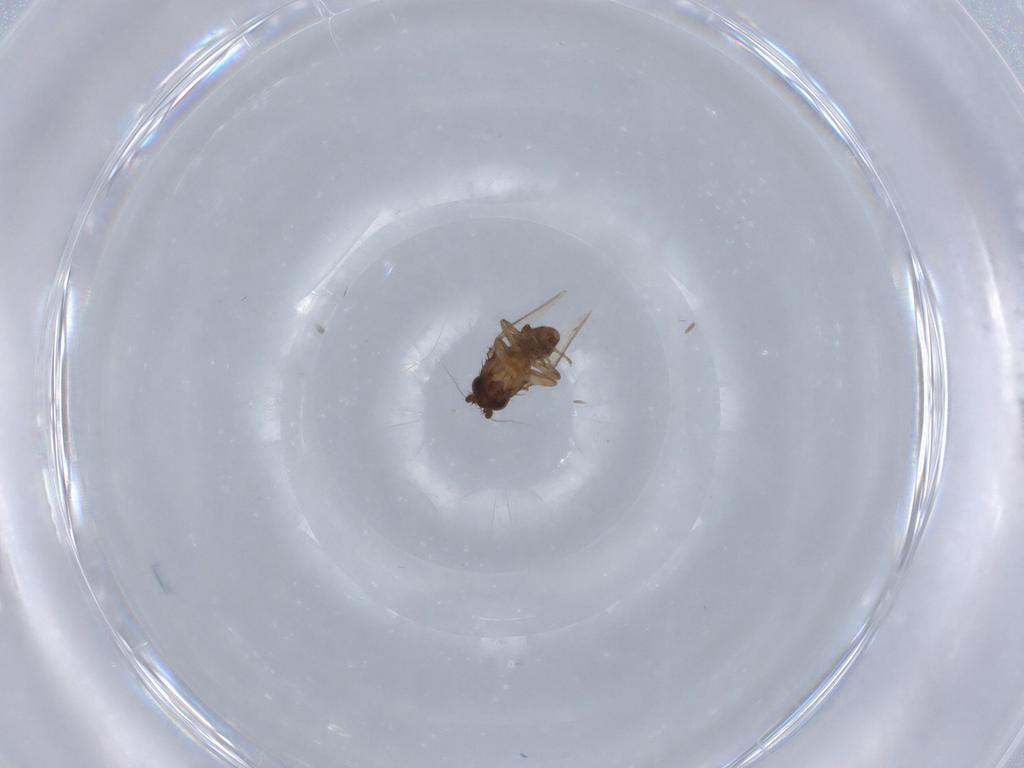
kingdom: Animalia
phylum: Arthropoda
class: Insecta
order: Diptera
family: Sphaeroceridae
